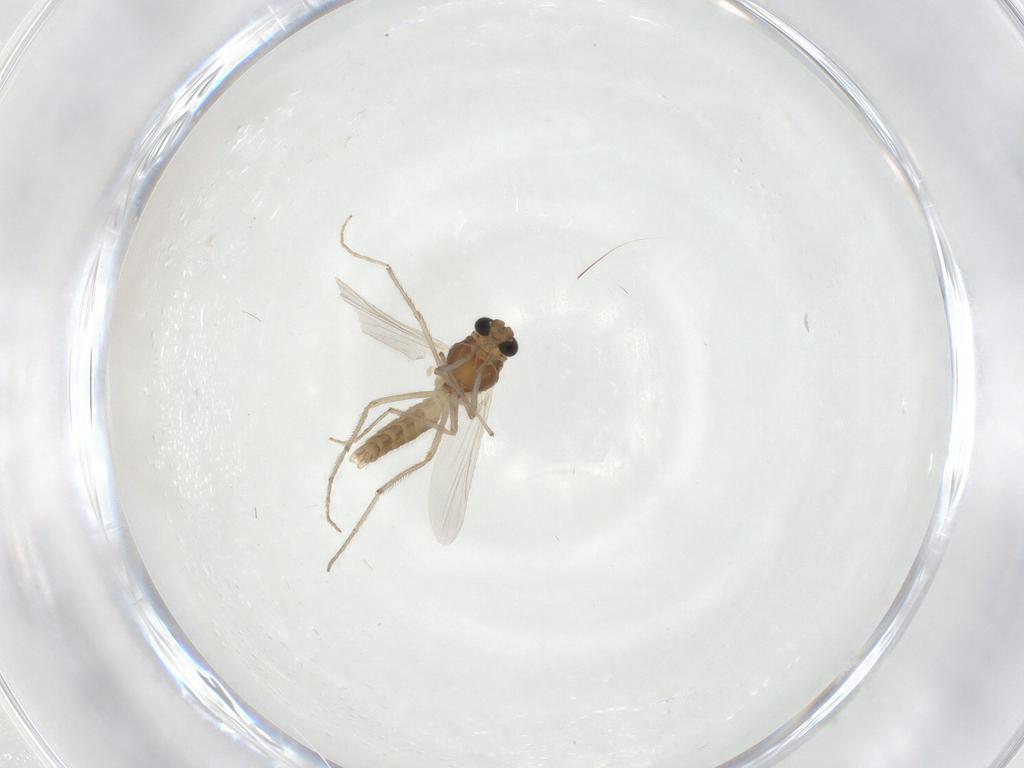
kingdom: Animalia
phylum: Arthropoda
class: Insecta
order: Diptera
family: Chironomidae
